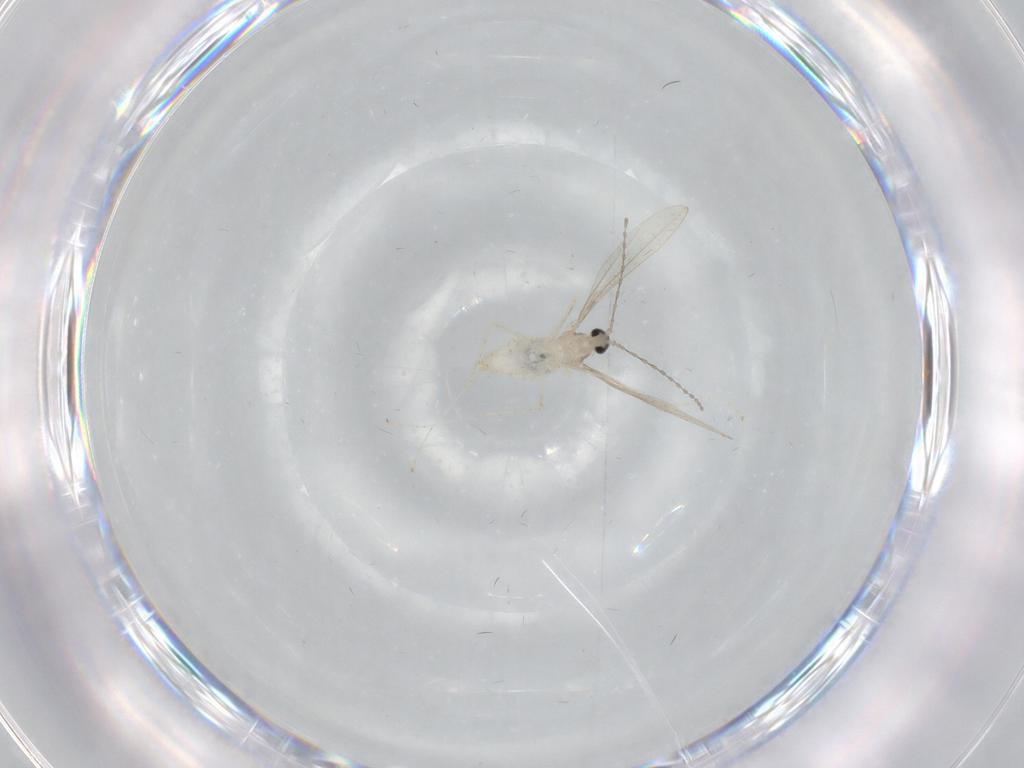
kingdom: Animalia
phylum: Arthropoda
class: Insecta
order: Diptera
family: Cecidomyiidae
